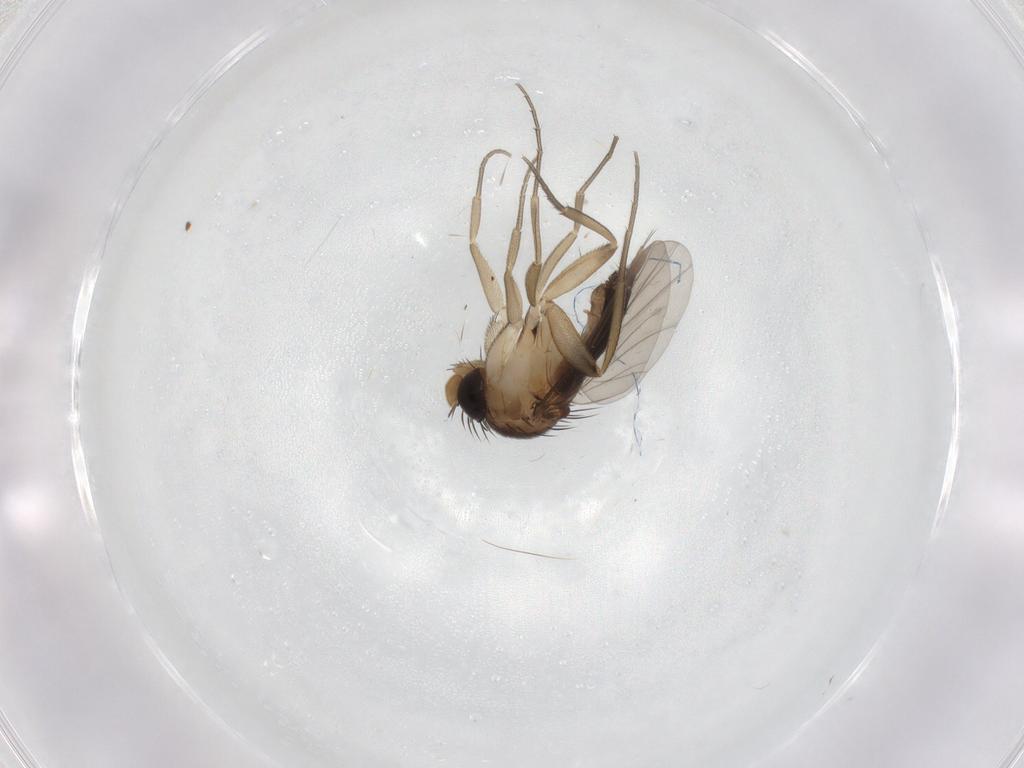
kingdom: Animalia
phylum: Arthropoda
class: Insecta
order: Diptera
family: Phoridae
